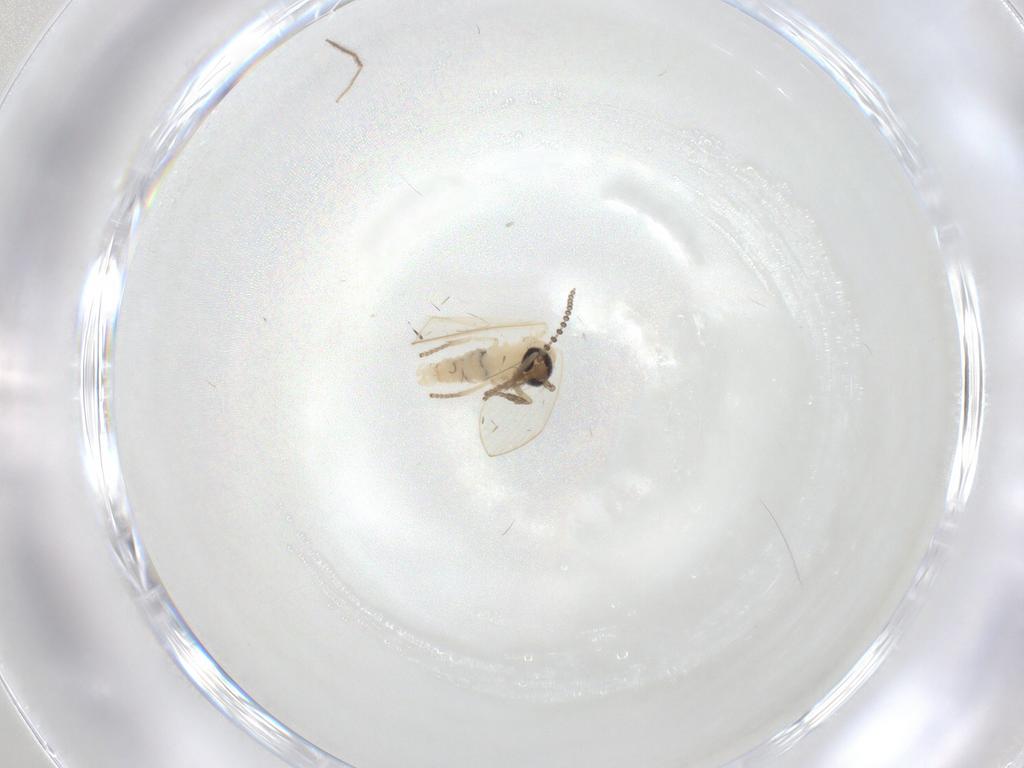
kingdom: Animalia
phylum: Arthropoda
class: Insecta
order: Diptera
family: Psychodidae
